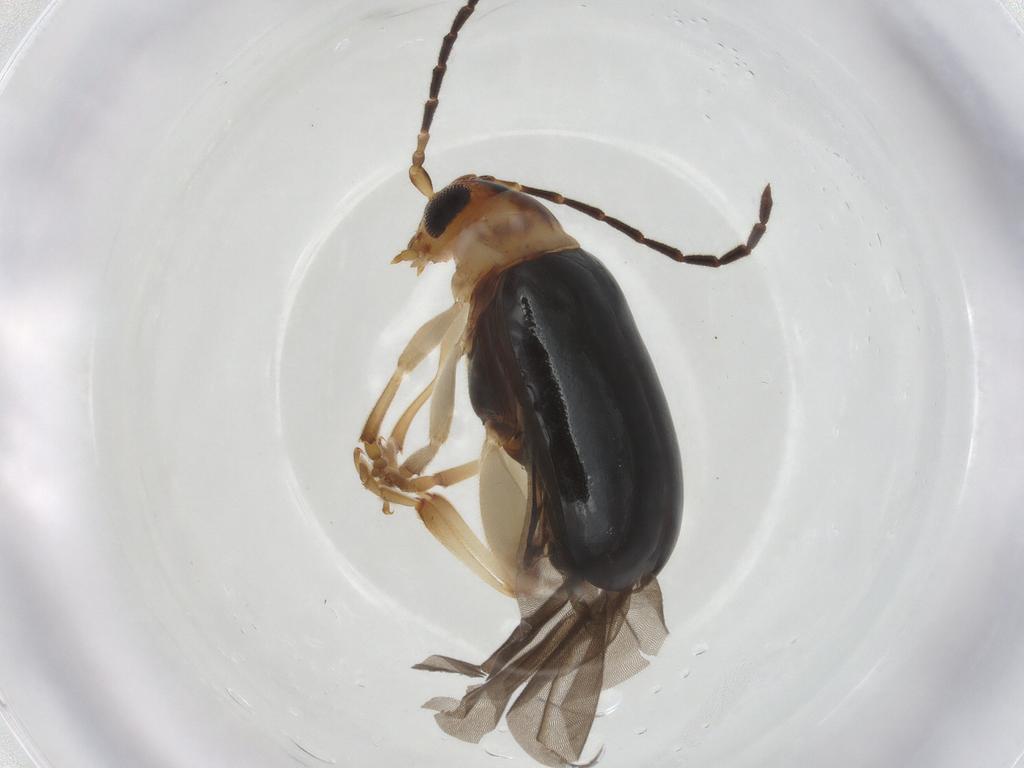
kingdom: Animalia
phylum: Arthropoda
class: Insecta
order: Coleoptera
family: Chrysomelidae
